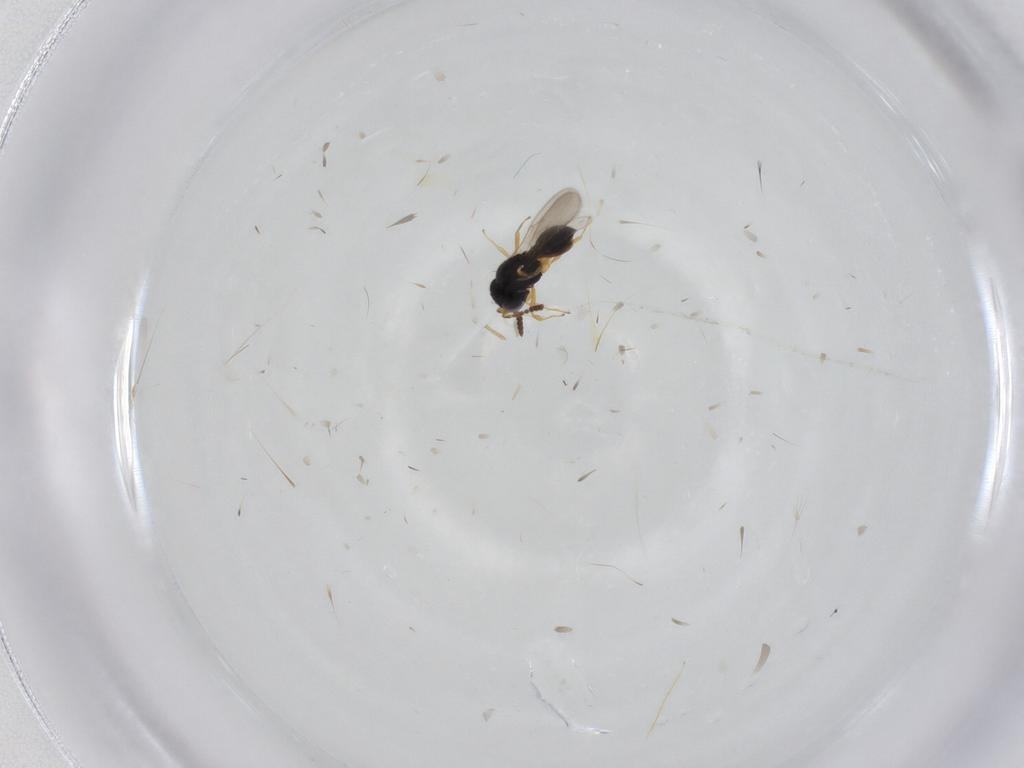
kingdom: Animalia
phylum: Arthropoda
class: Insecta
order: Hymenoptera
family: Scelionidae
